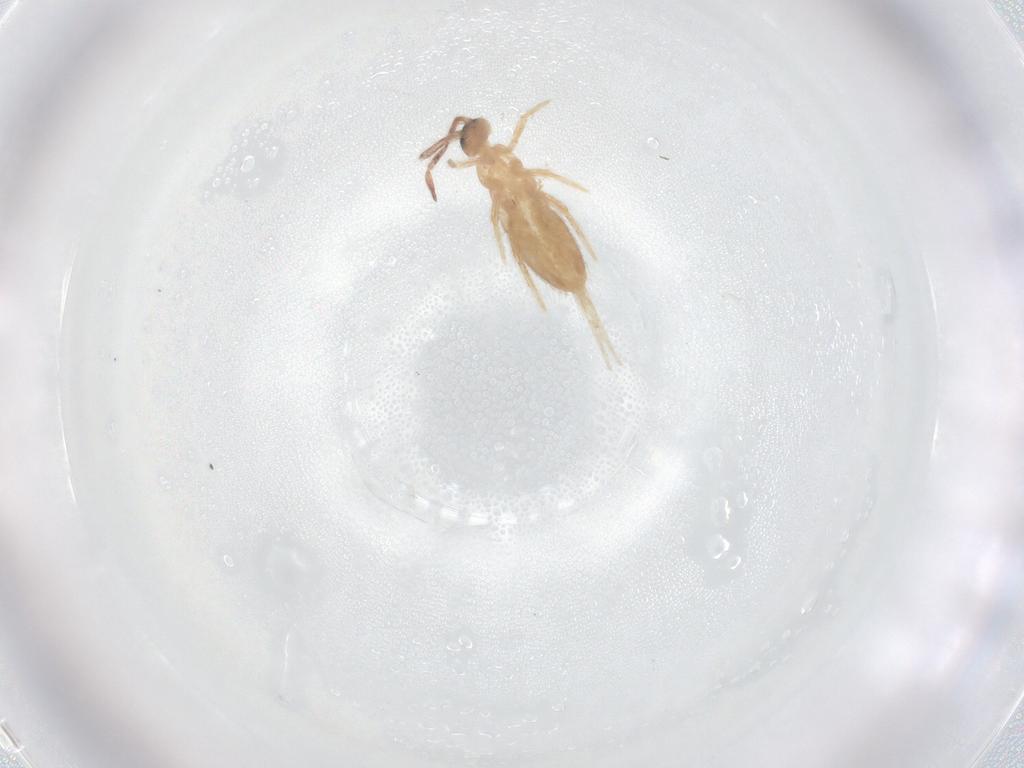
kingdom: Animalia
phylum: Arthropoda
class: Collembola
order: Entomobryomorpha
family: Entomobryidae
